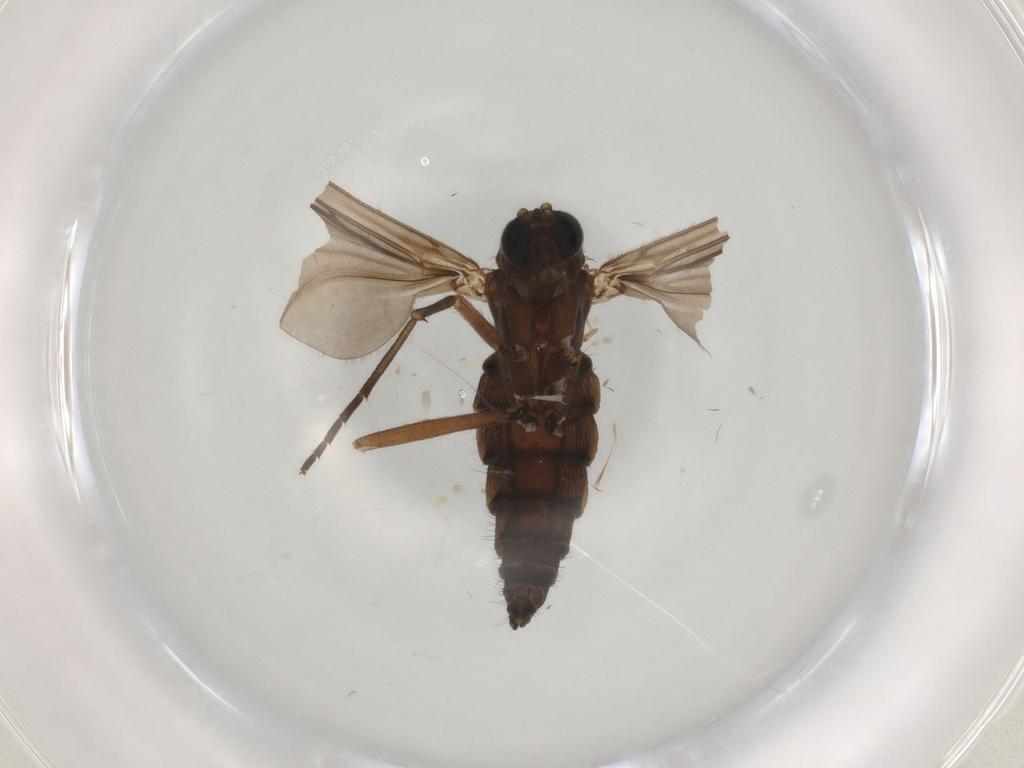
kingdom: Animalia
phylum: Arthropoda
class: Insecta
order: Diptera
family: Sciaridae
